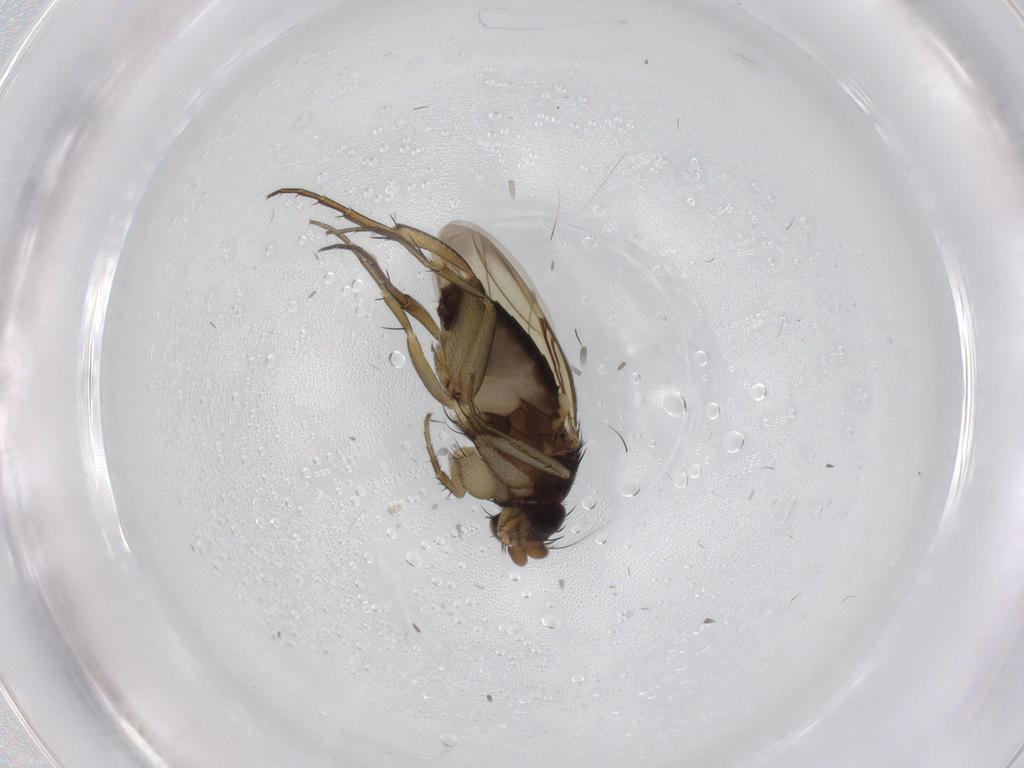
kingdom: Animalia
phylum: Arthropoda
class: Insecta
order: Diptera
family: Phoridae
